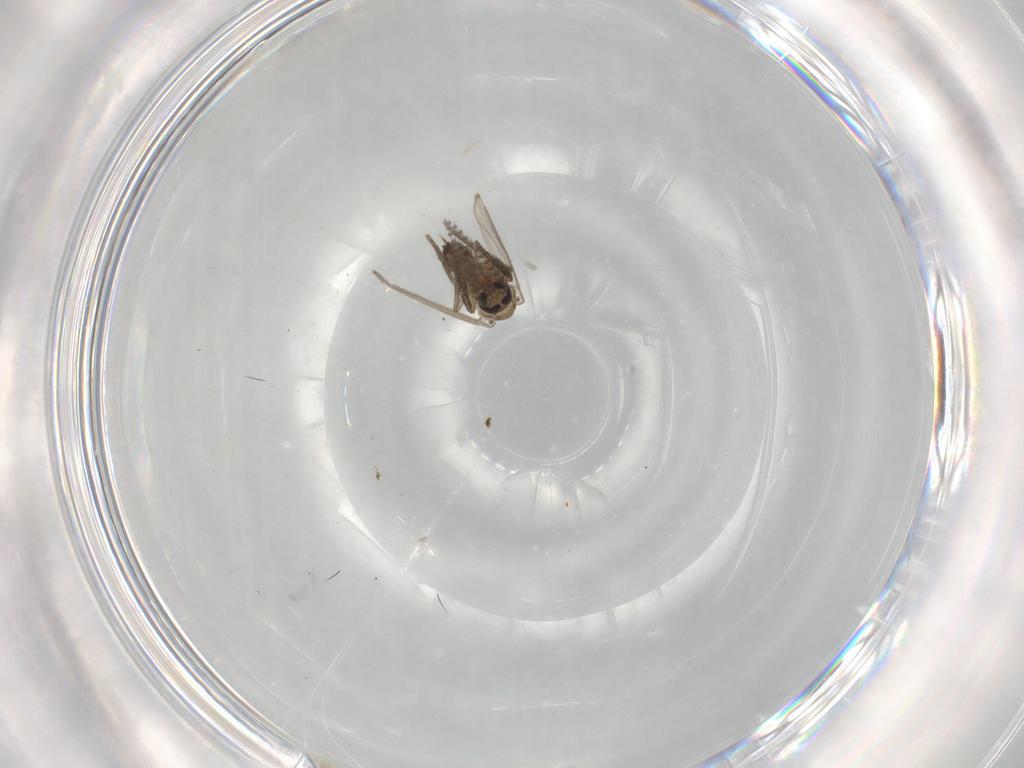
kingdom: Animalia
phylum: Arthropoda
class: Insecta
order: Diptera
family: Psychodidae
